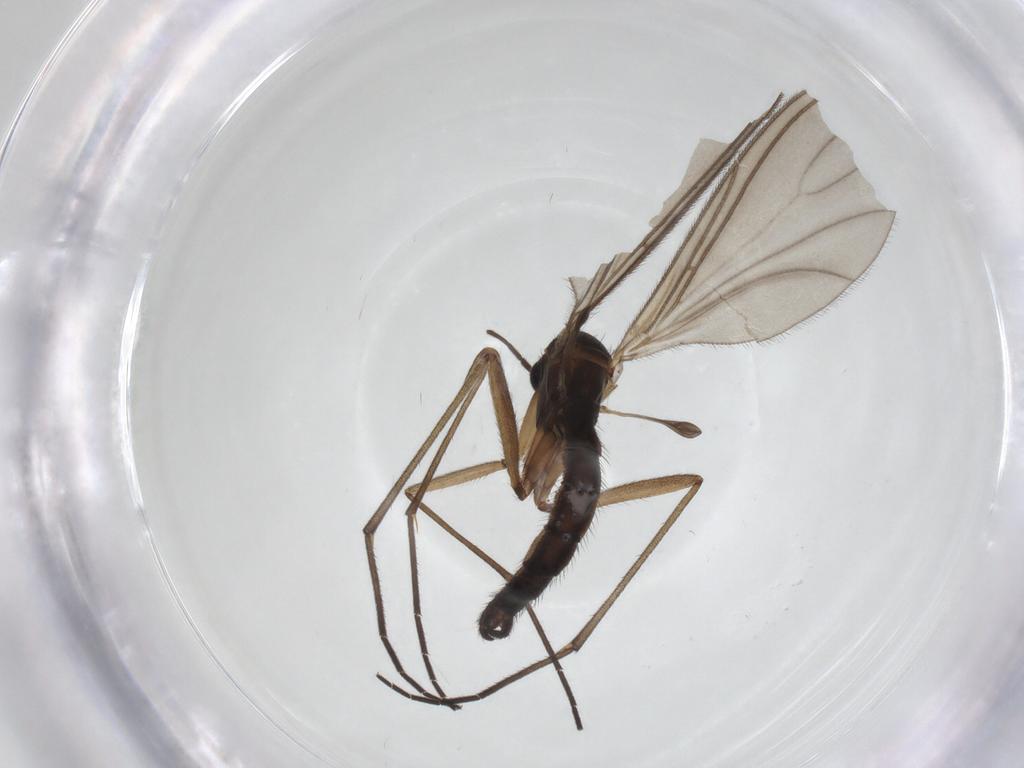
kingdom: Animalia
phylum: Arthropoda
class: Insecta
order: Diptera
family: Sciaridae
